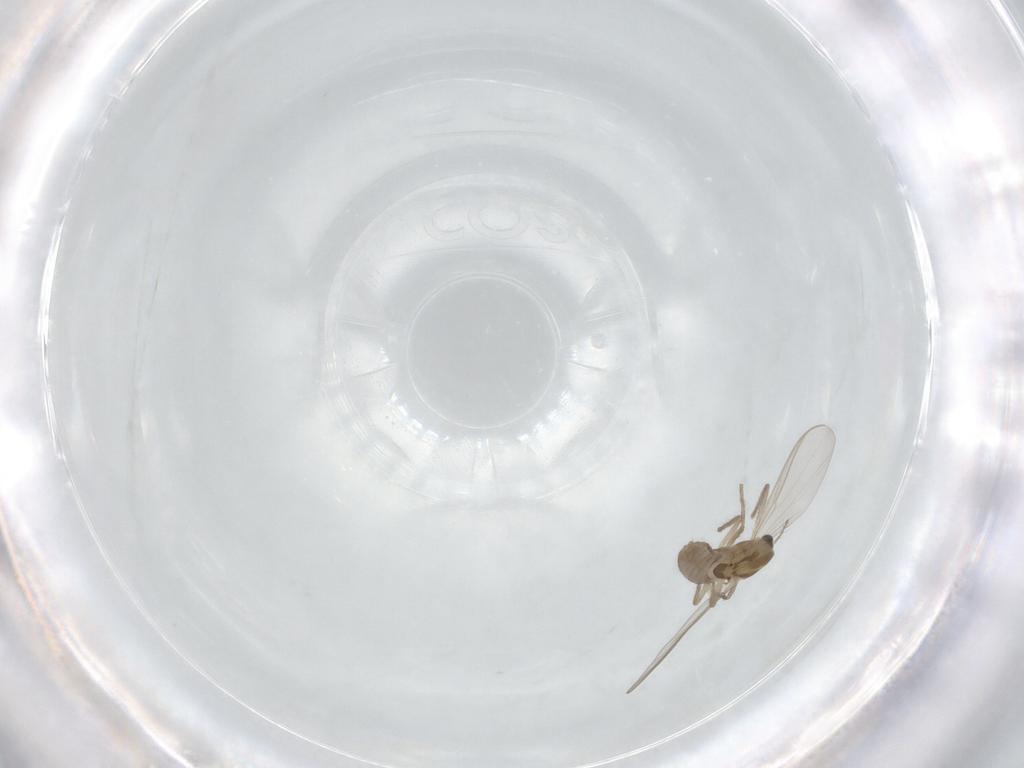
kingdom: Animalia
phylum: Arthropoda
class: Insecta
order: Diptera
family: Chironomidae
